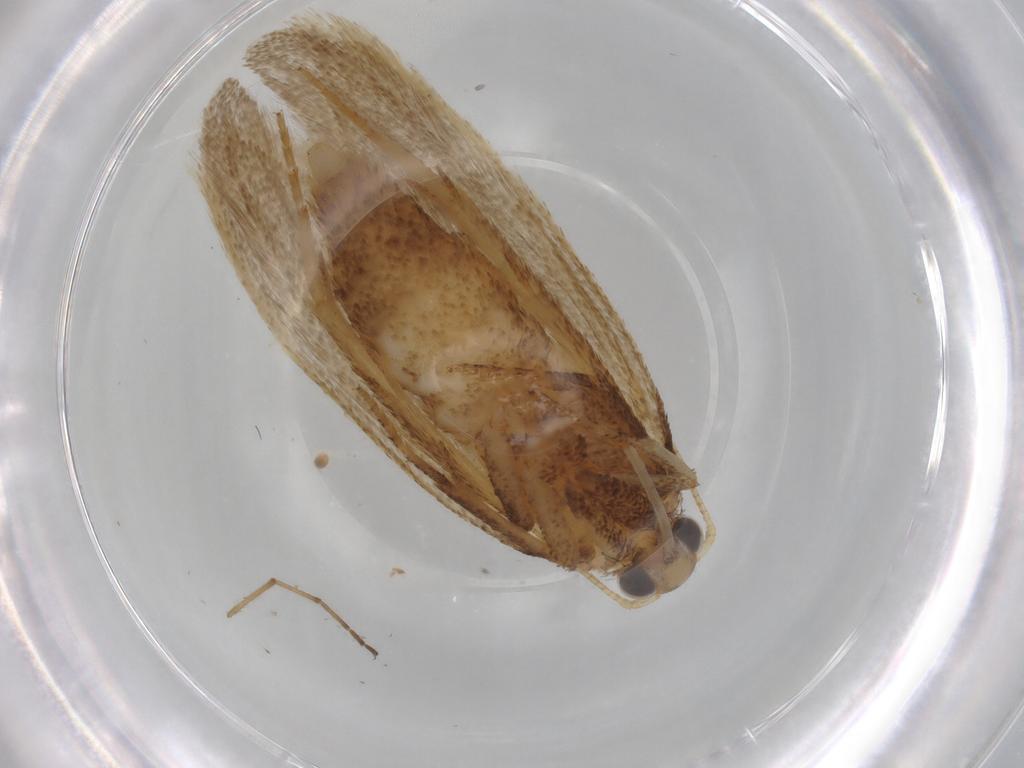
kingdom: Animalia
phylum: Arthropoda
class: Insecta
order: Lepidoptera
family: Autostichidae
